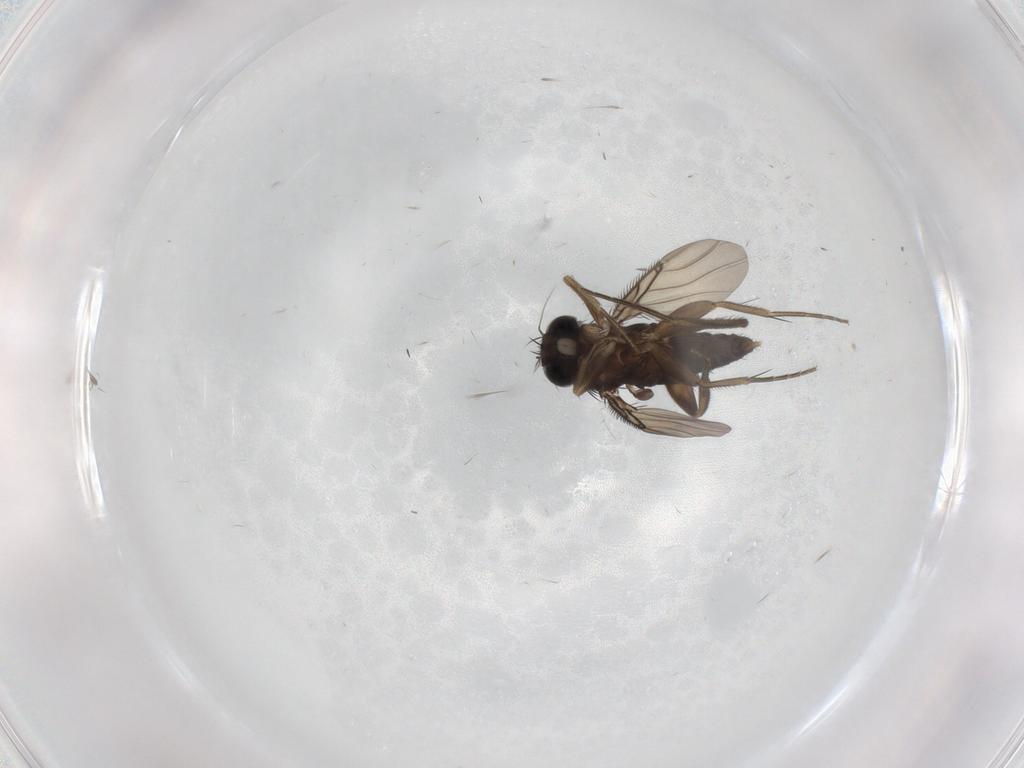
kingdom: Animalia
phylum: Arthropoda
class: Insecta
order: Diptera
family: Phoridae
